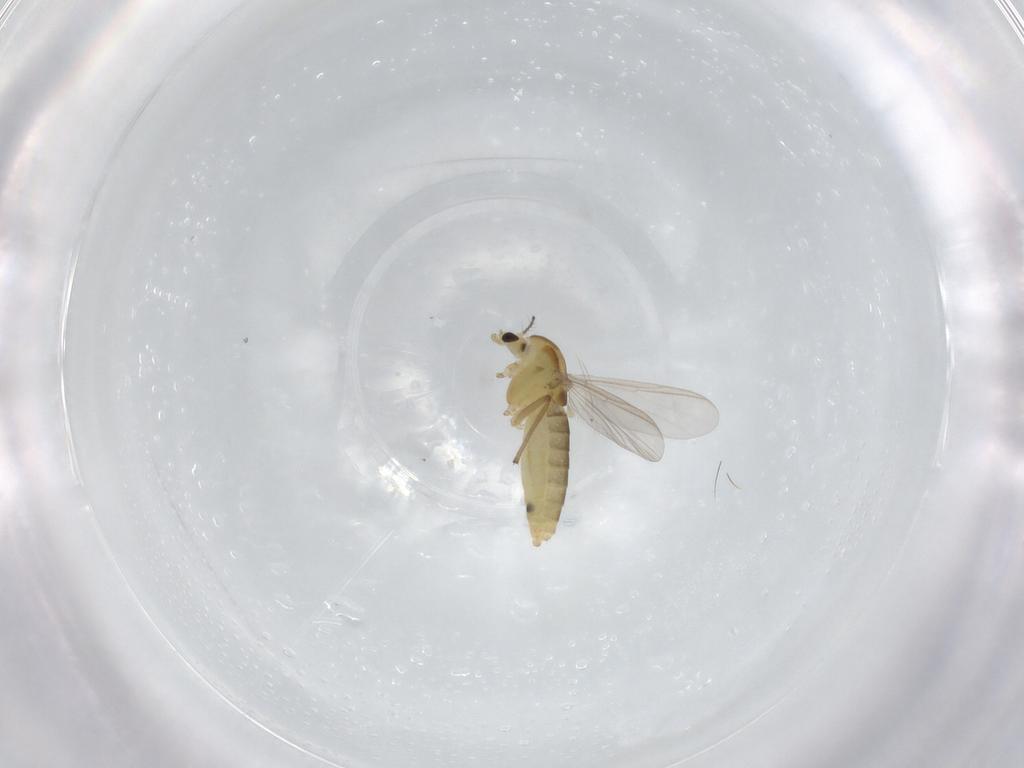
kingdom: Animalia
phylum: Arthropoda
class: Insecta
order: Diptera
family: Chironomidae
